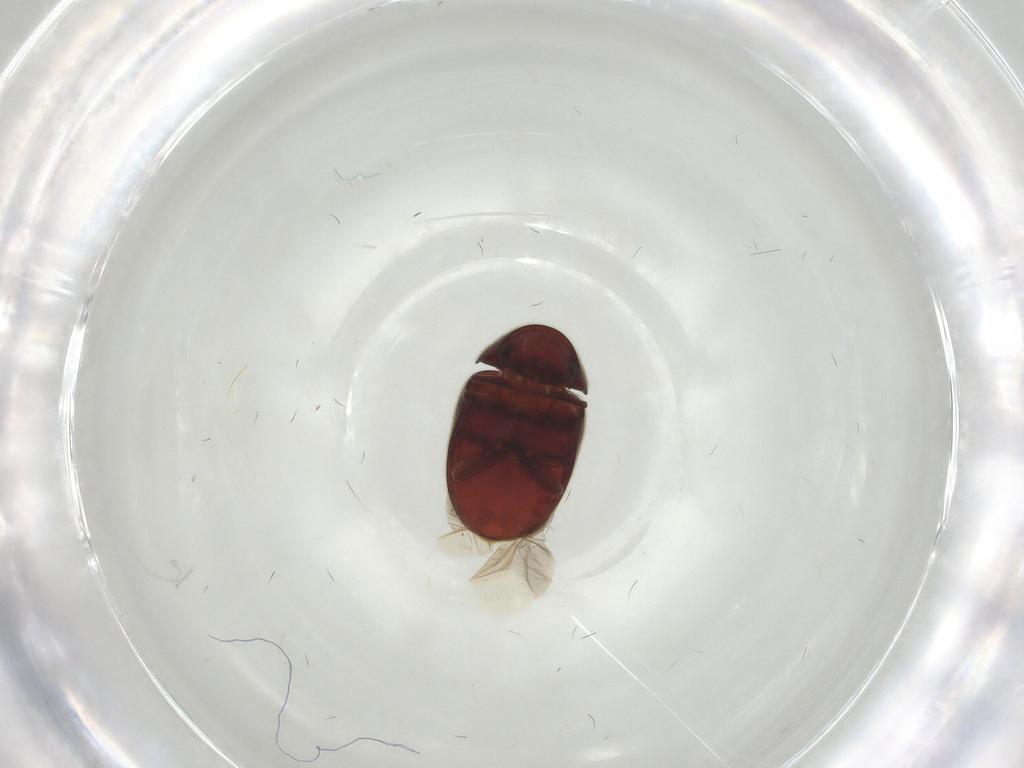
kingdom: Animalia
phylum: Arthropoda
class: Insecta
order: Coleoptera
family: Ptinidae
